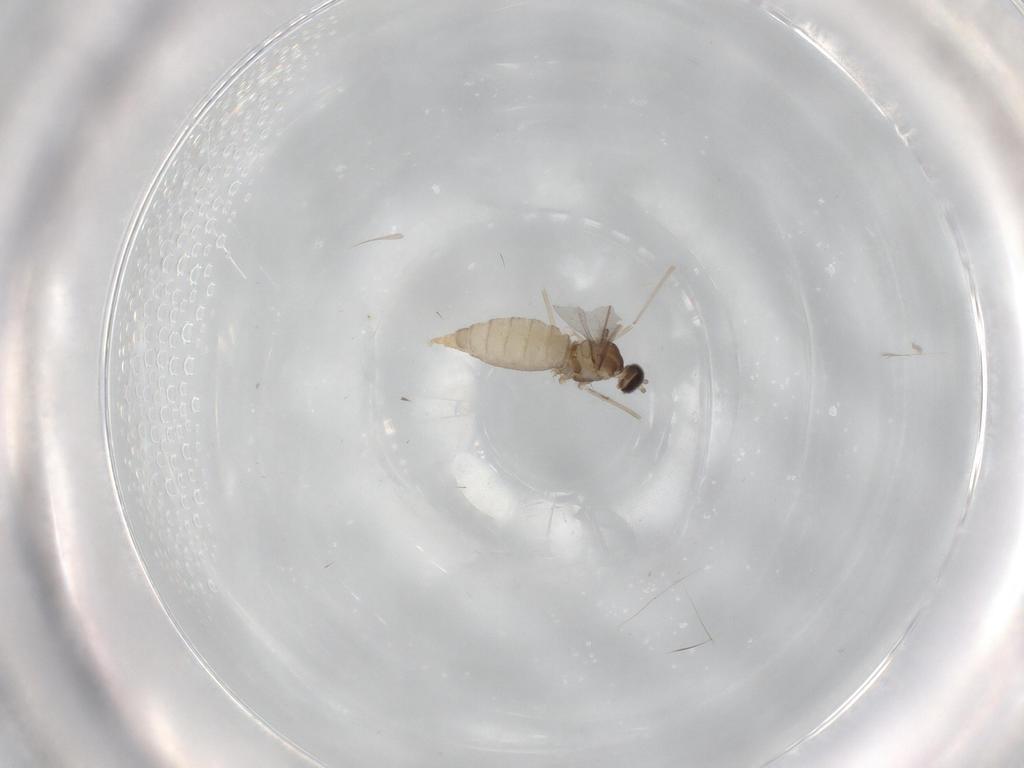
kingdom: Animalia
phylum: Arthropoda
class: Insecta
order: Diptera
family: Cecidomyiidae
